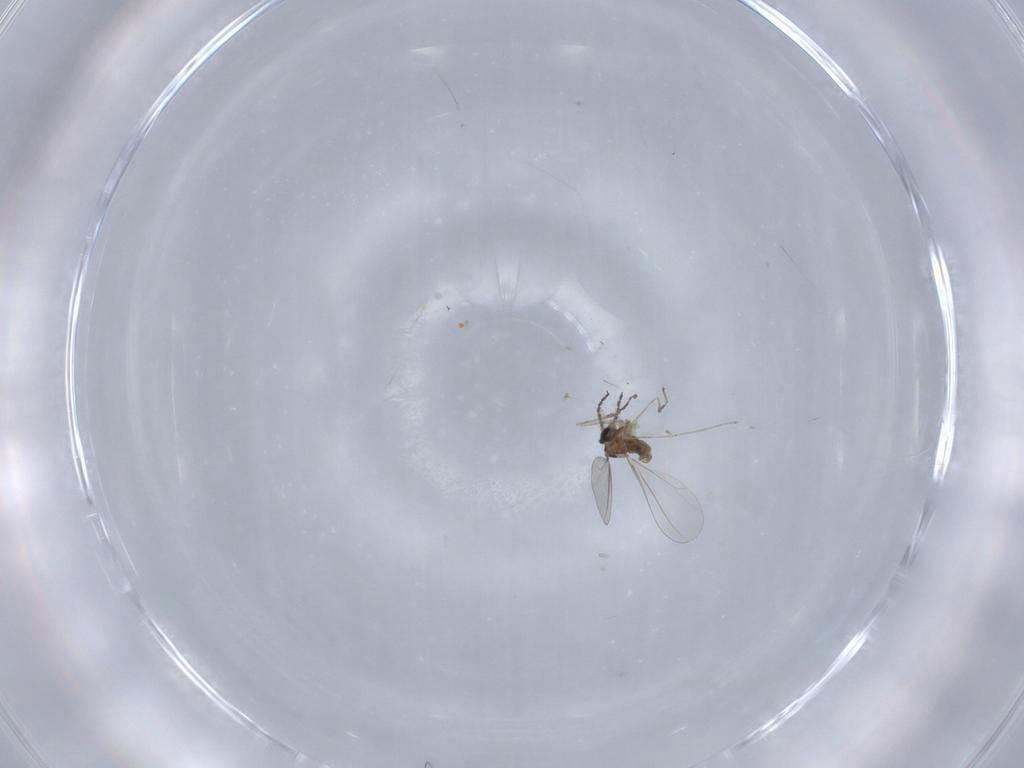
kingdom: Animalia
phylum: Arthropoda
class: Insecta
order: Diptera
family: Cecidomyiidae
